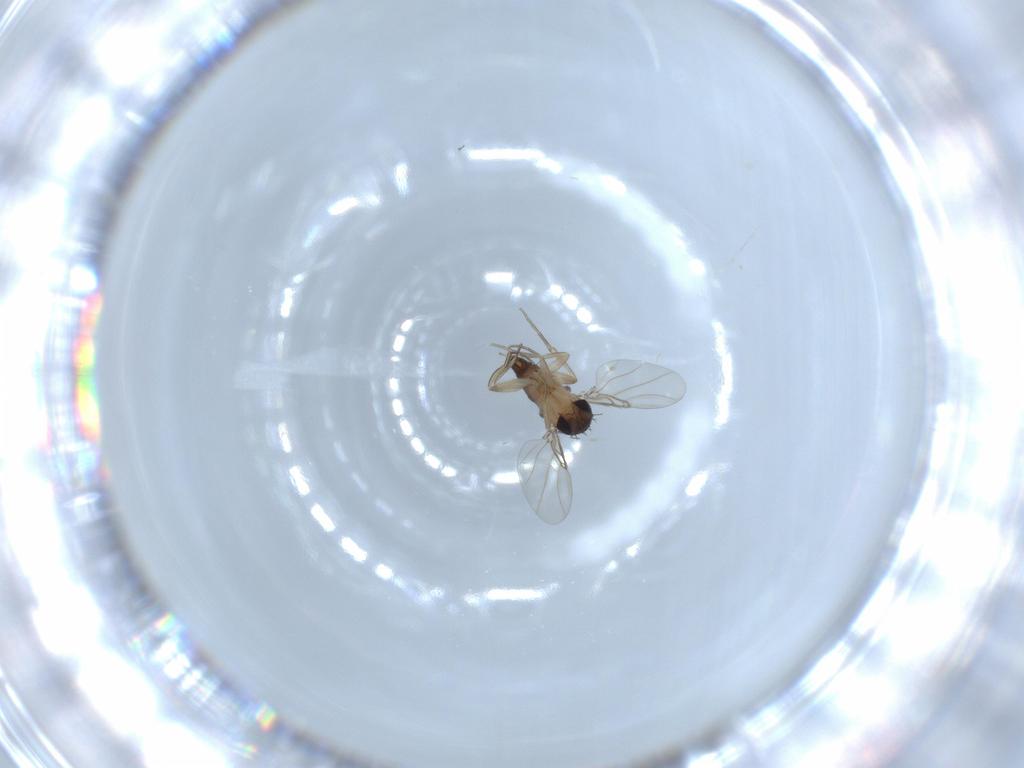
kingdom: Animalia
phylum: Arthropoda
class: Insecta
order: Diptera
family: Phoridae
